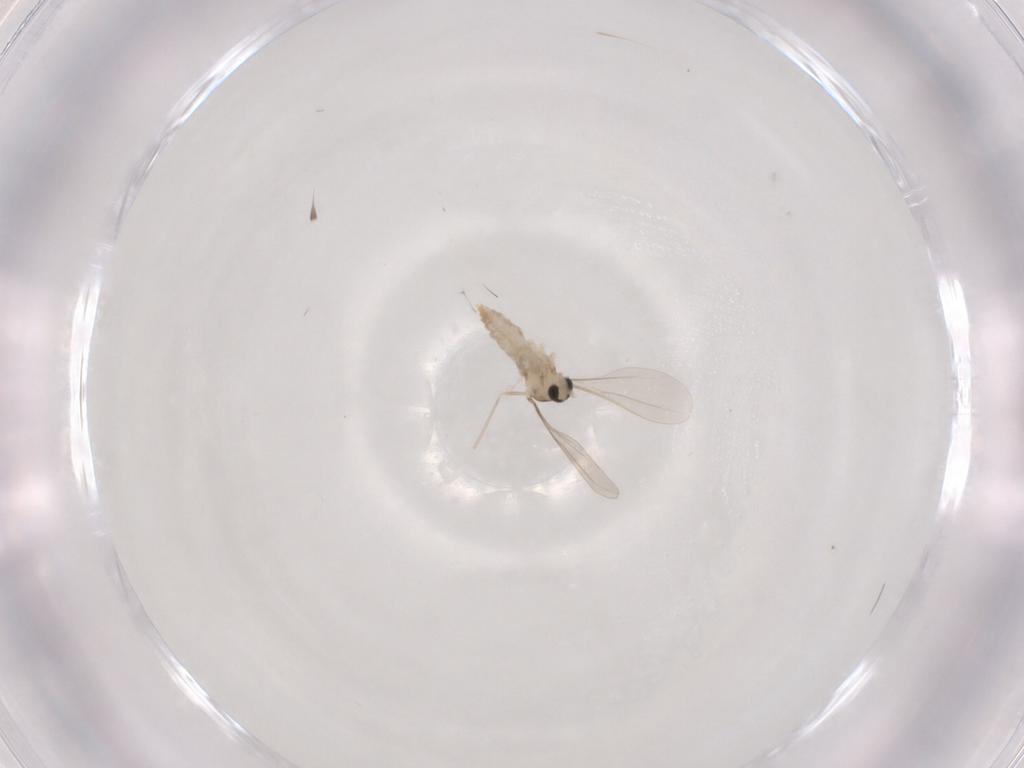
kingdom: Animalia
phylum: Arthropoda
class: Insecta
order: Diptera
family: Cecidomyiidae
